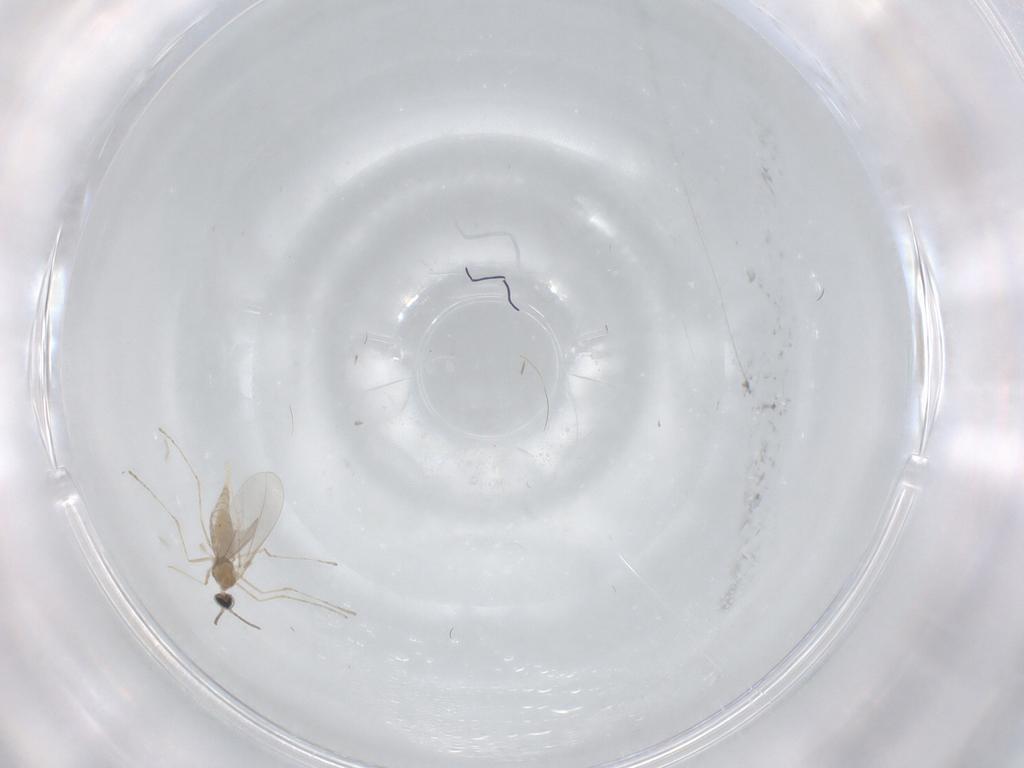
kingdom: Animalia
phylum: Arthropoda
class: Insecta
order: Diptera
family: Cecidomyiidae
